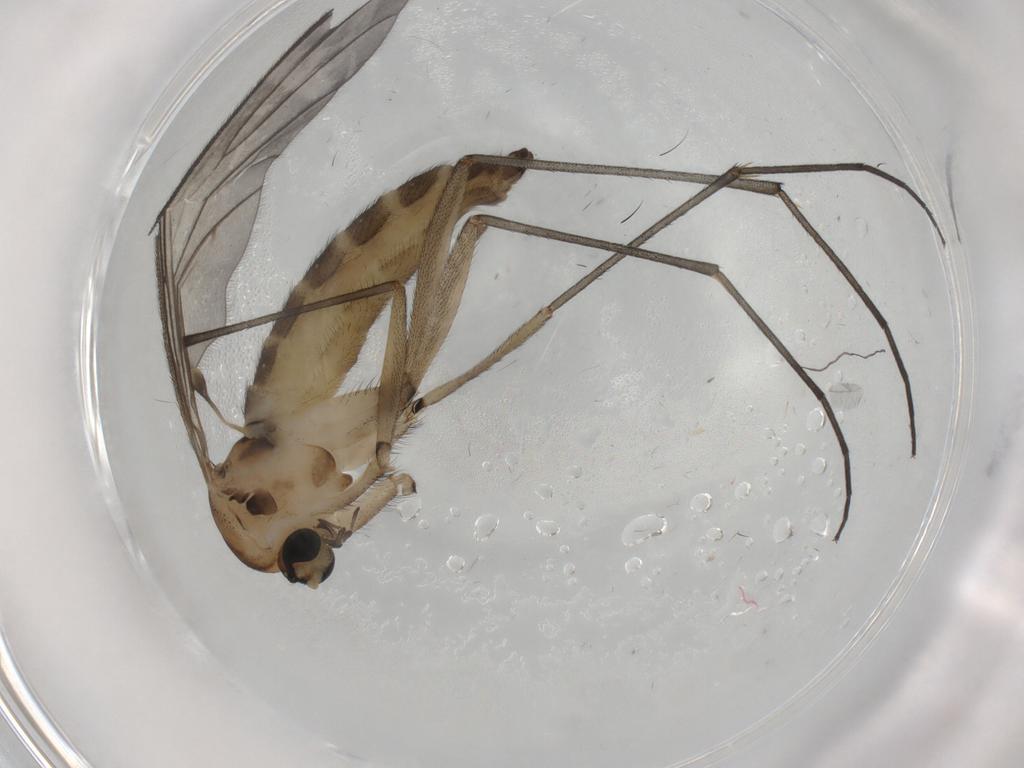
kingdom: Animalia
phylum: Arthropoda
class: Insecta
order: Diptera
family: Sciaridae
